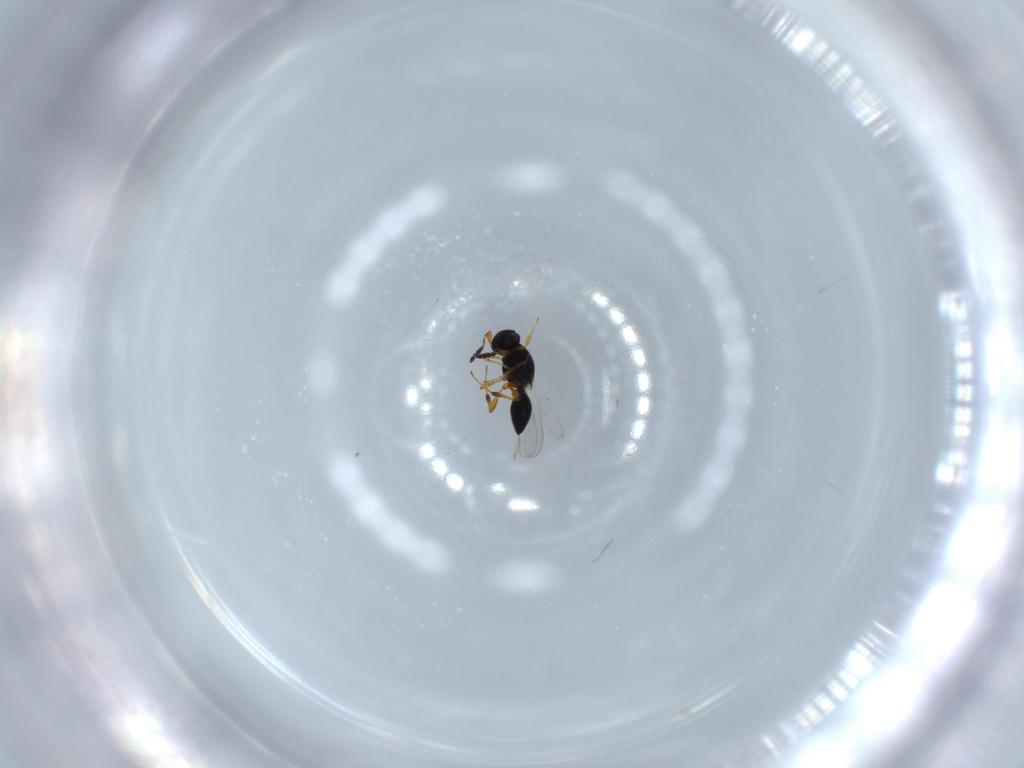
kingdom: Animalia
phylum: Arthropoda
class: Insecta
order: Hymenoptera
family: Platygastridae
